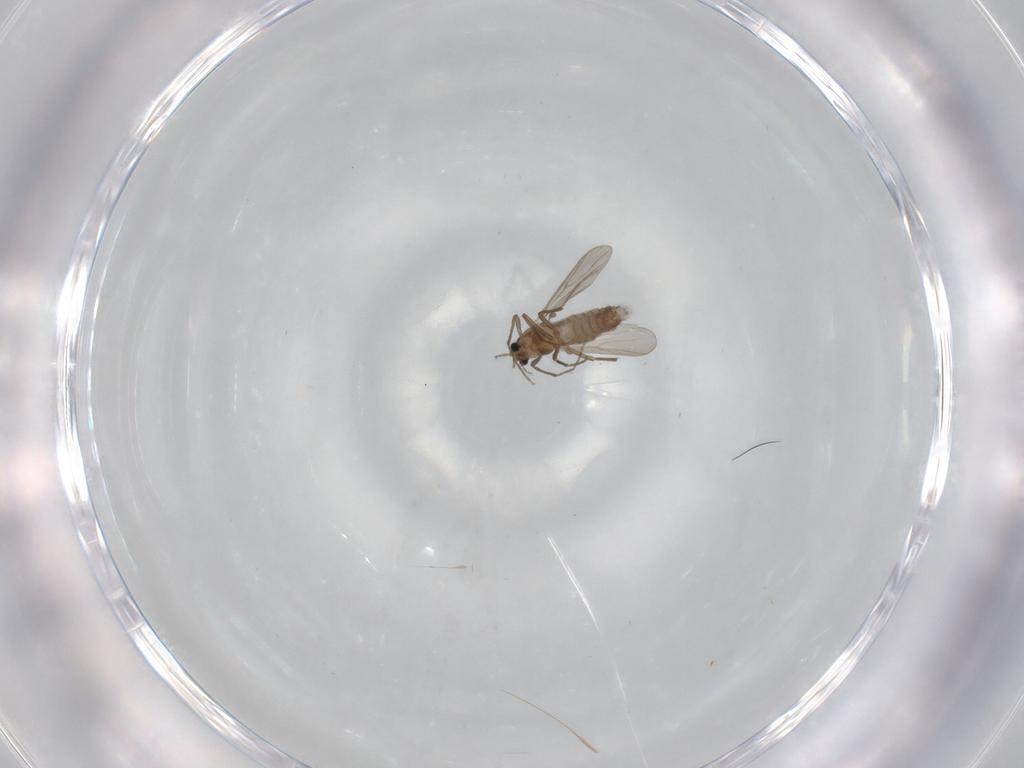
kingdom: Animalia
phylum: Arthropoda
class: Insecta
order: Diptera
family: Chironomidae
